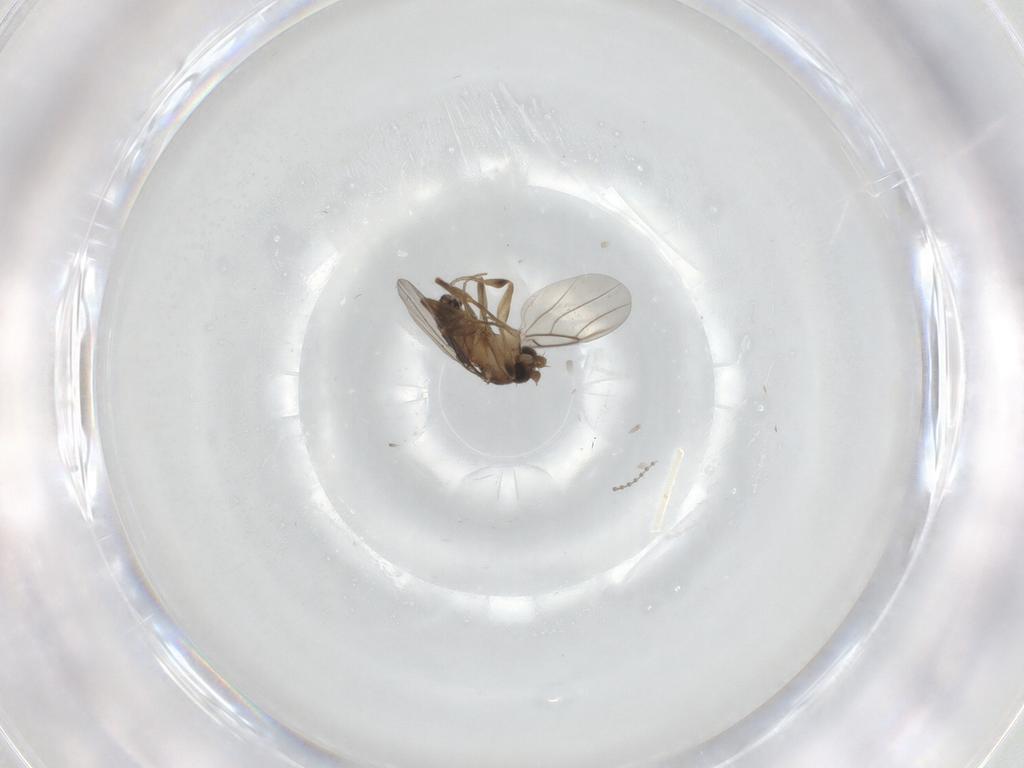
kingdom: Animalia
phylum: Arthropoda
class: Insecta
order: Diptera
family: Phoridae
